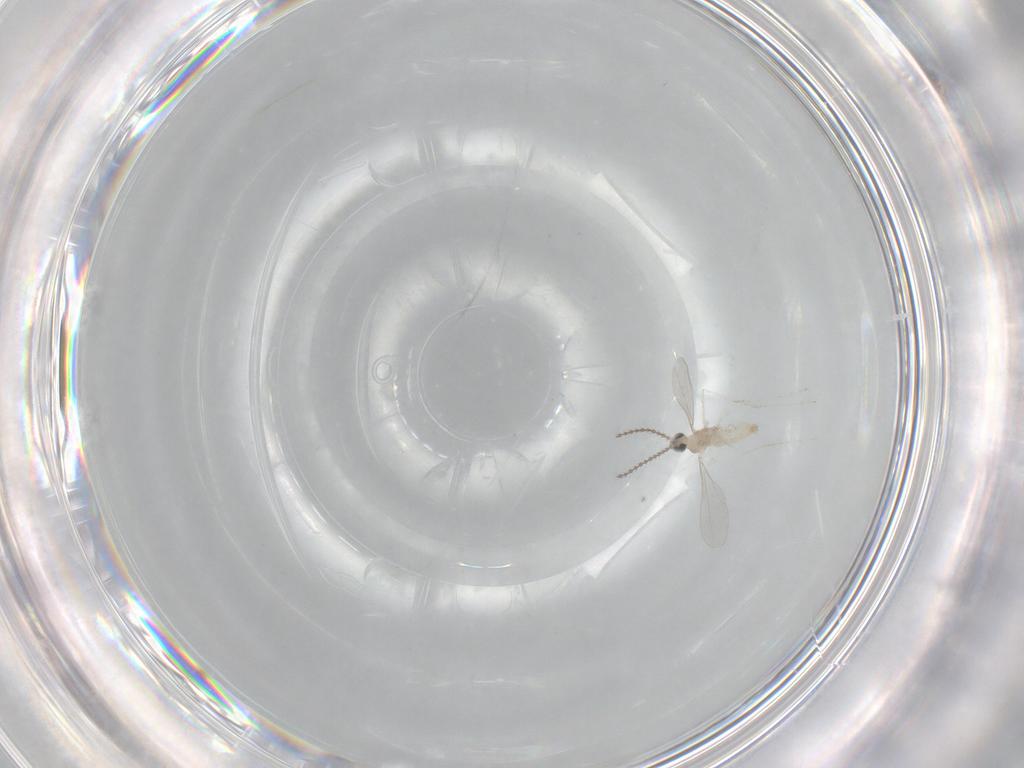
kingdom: Animalia
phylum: Arthropoda
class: Insecta
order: Diptera
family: Cecidomyiidae
